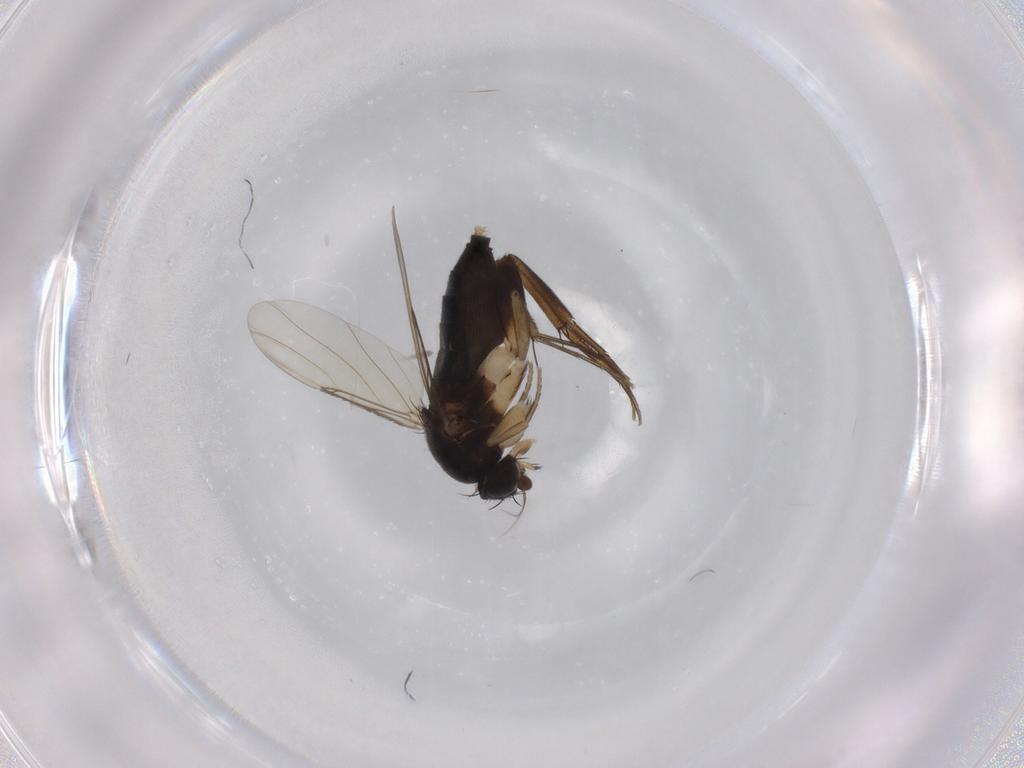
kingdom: Animalia
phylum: Arthropoda
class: Insecta
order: Diptera
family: Phoridae
